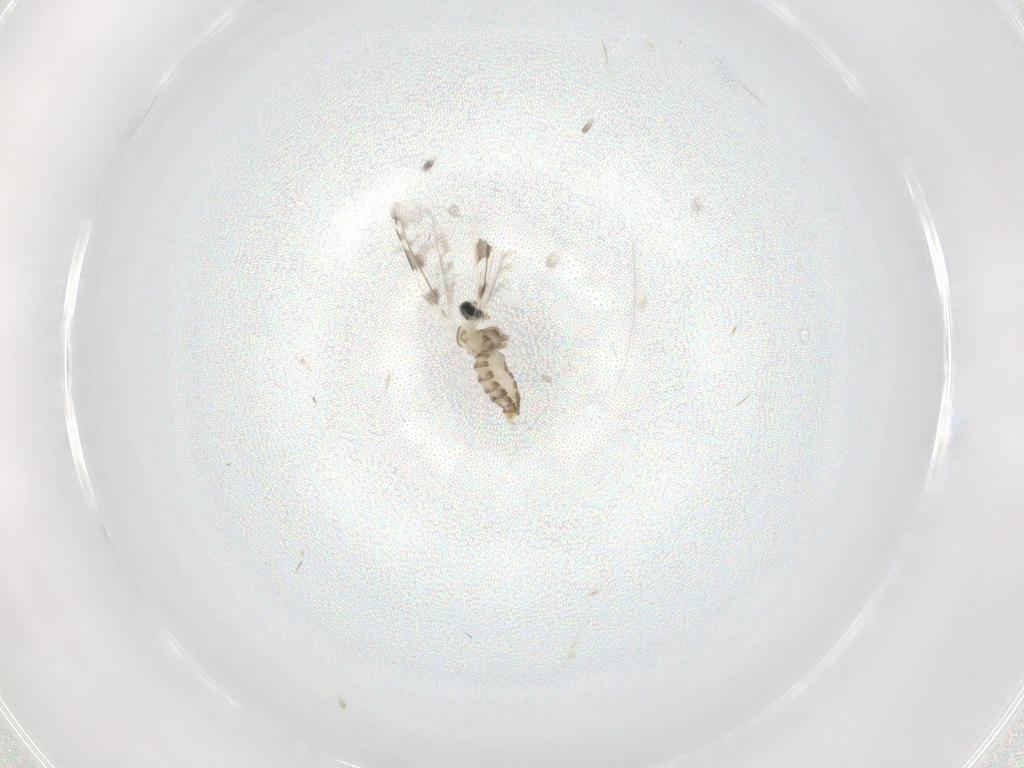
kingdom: Animalia
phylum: Arthropoda
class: Insecta
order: Diptera
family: Cecidomyiidae
